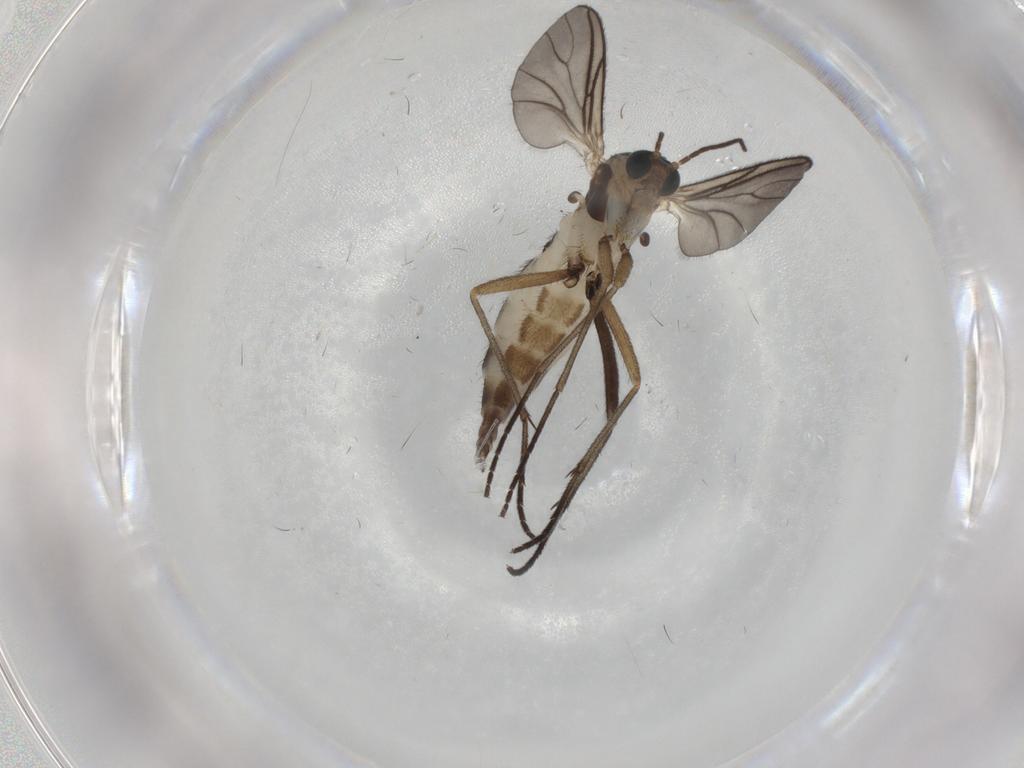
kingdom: Animalia
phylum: Arthropoda
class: Insecta
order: Diptera
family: Sciaridae
